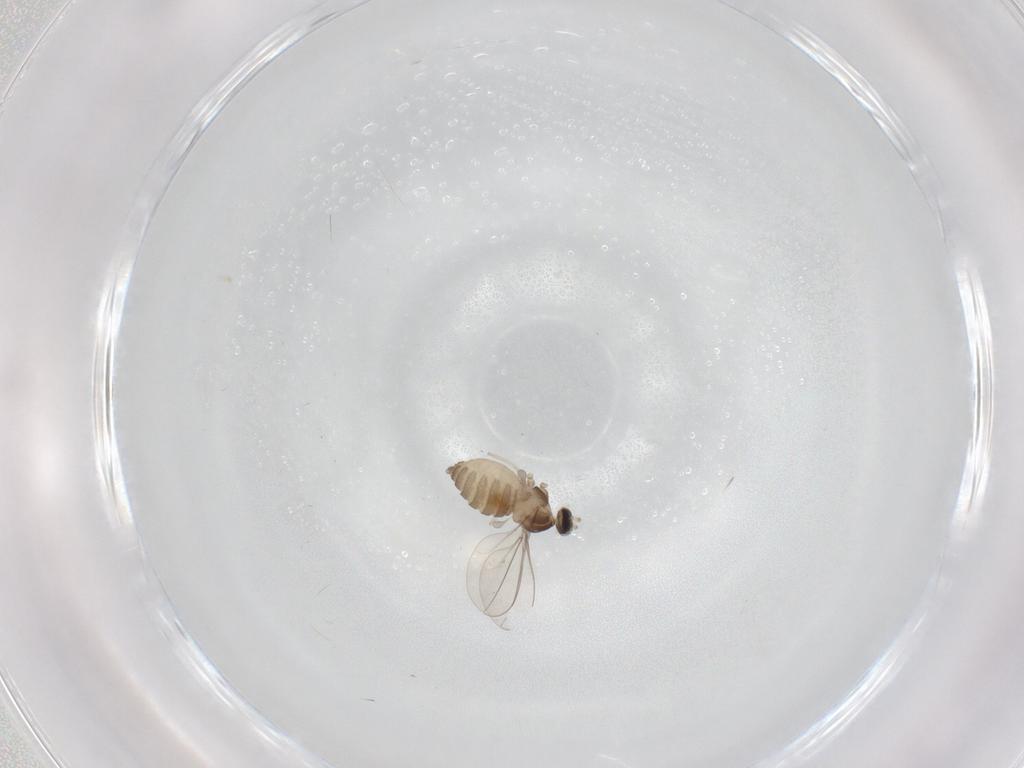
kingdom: Animalia
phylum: Arthropoda
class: Insecta
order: Diptera
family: Cecidomyiidae
